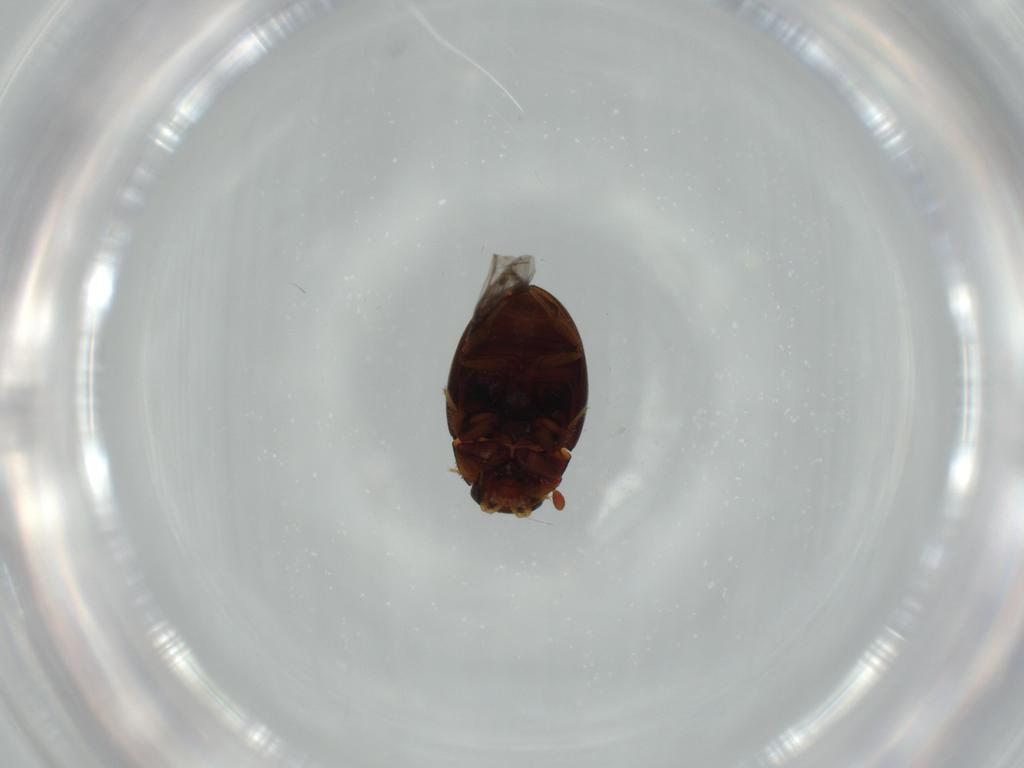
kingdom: Animalia
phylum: Arthropoda
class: Insecta
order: Coleoptera
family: Hydrophilidae
